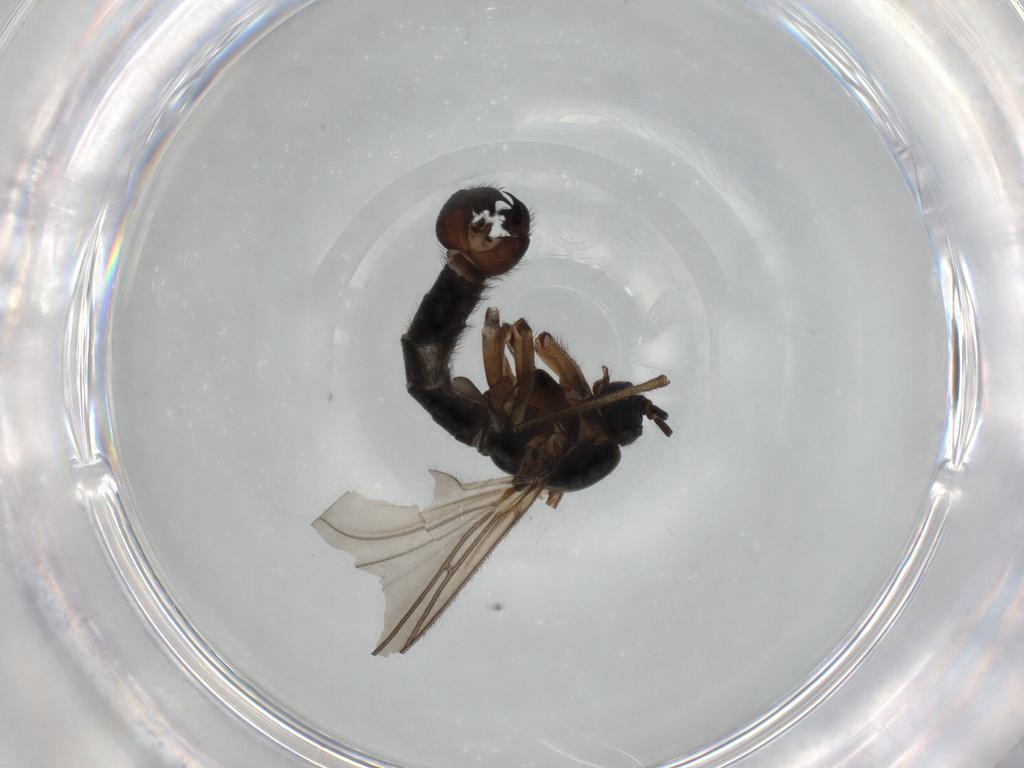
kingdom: Animalia
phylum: Arthropoda
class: Insecta
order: Diptera
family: Sciaridae
